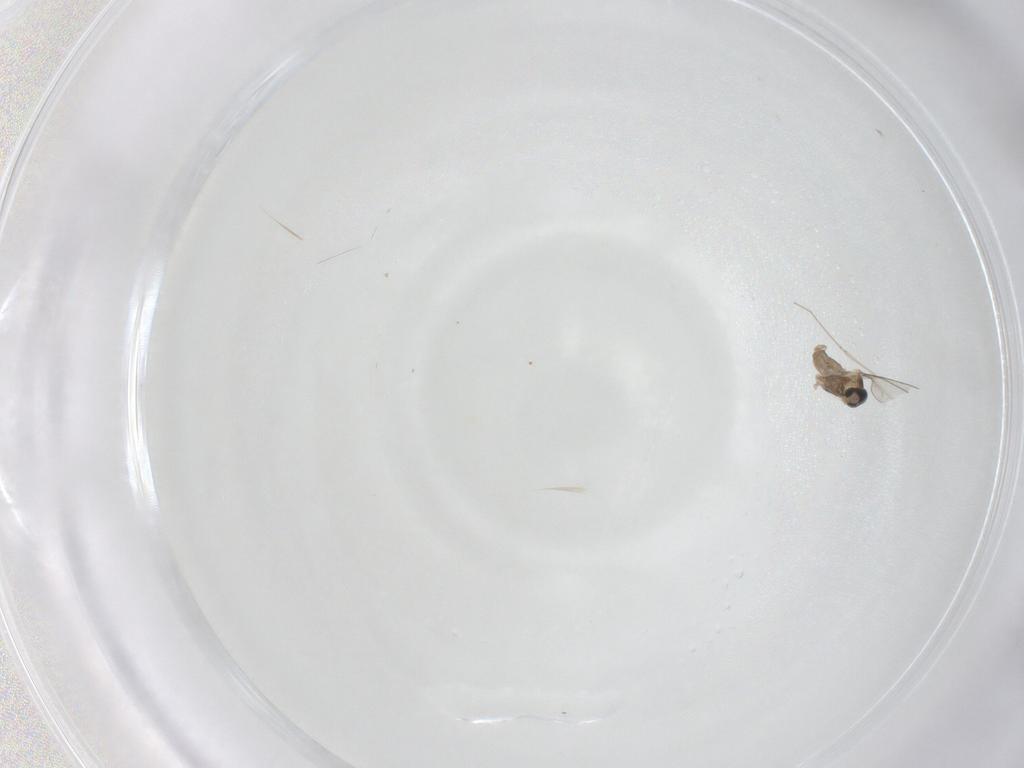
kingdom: Animalia
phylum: Arthropoda
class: Insecta
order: Diptera
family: Cecidomyiidae
